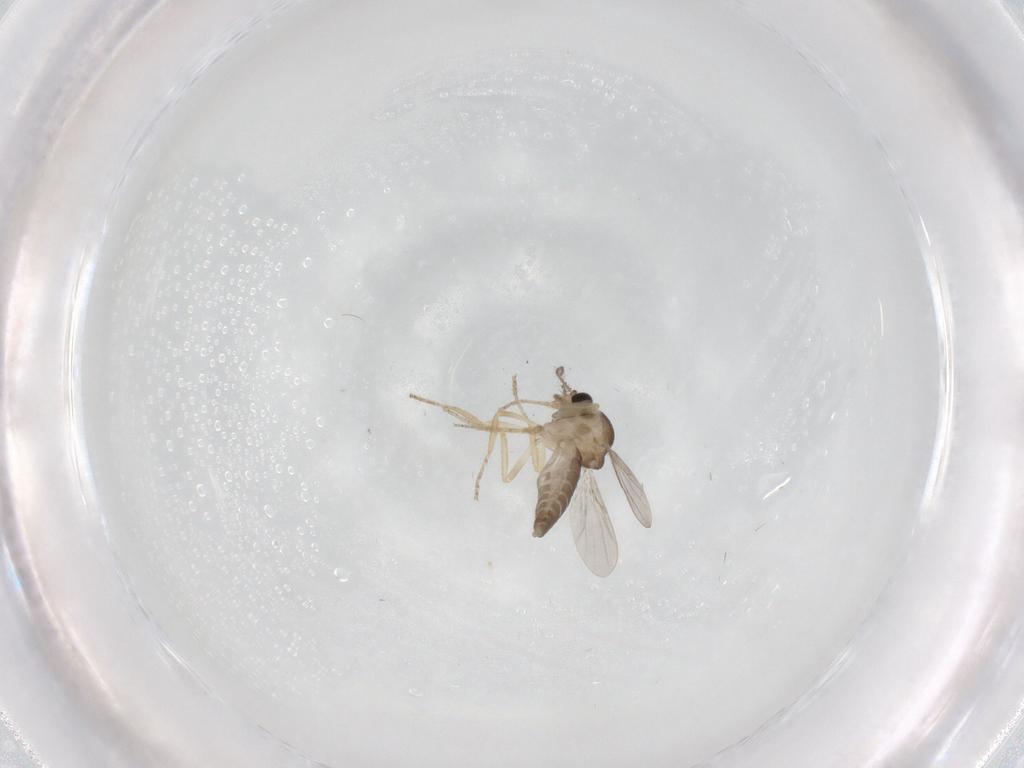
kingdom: Animalia
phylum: Arthropoda
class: Insecta
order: Diptera
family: Ceratopogonidae
